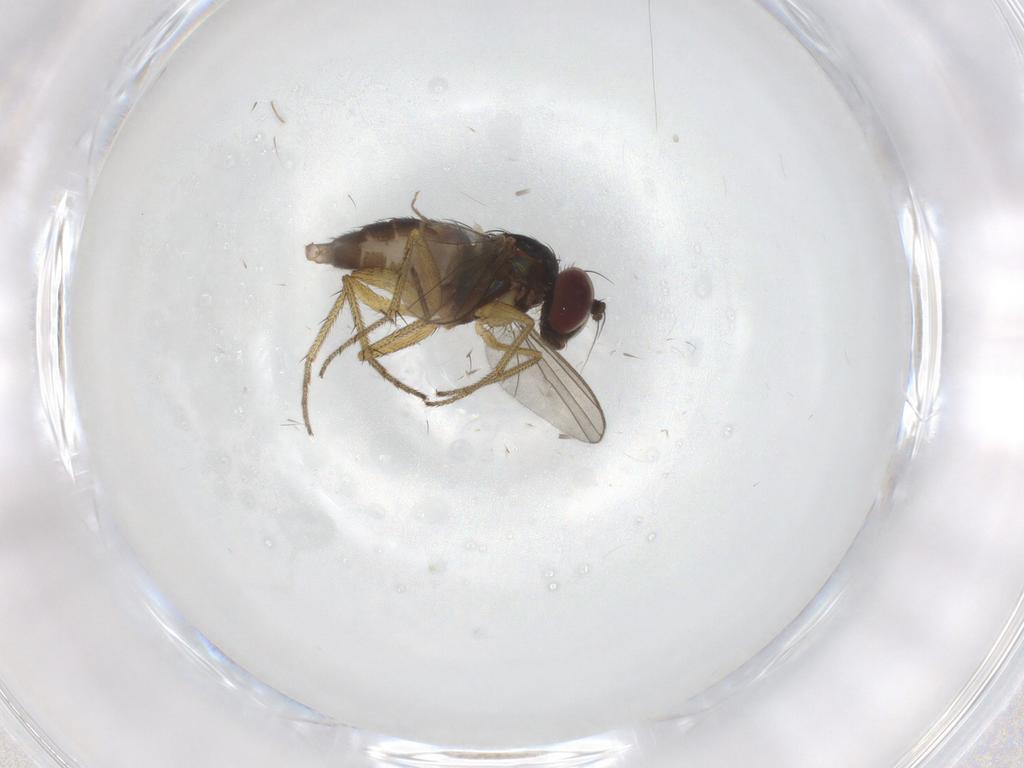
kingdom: Animalia
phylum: Arthropoda
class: Insecta
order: Diptera
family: Dolichopodidae
